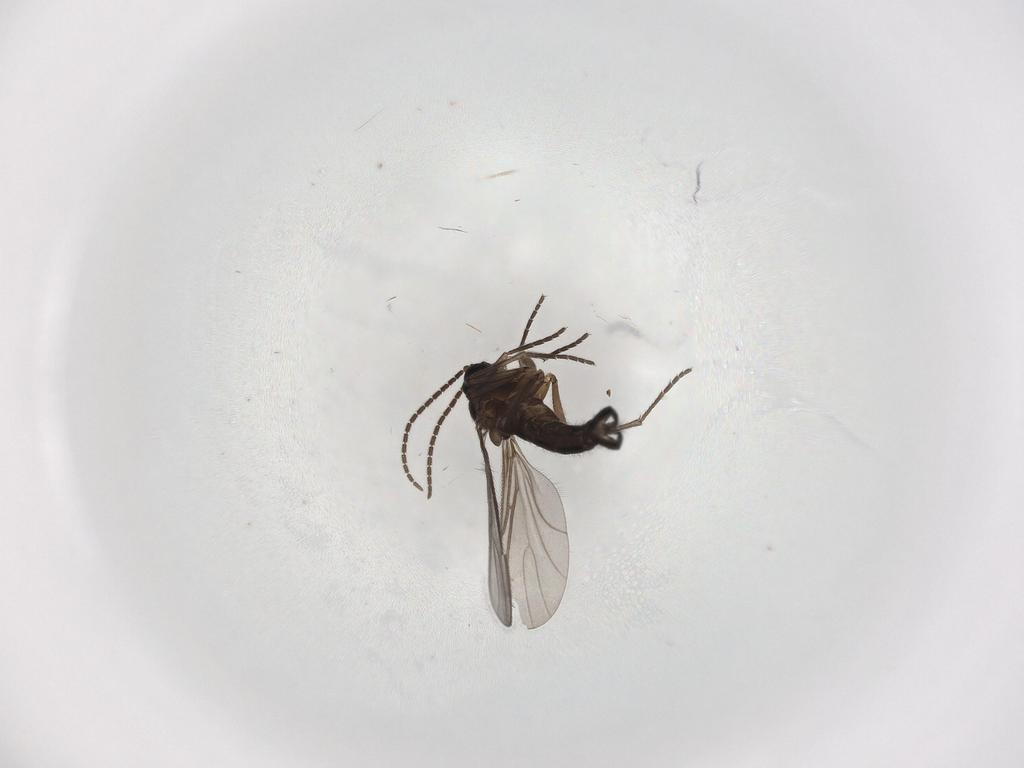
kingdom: Animalia
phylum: Arthropoda
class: Insecta
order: Diptera
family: Sciaridae
